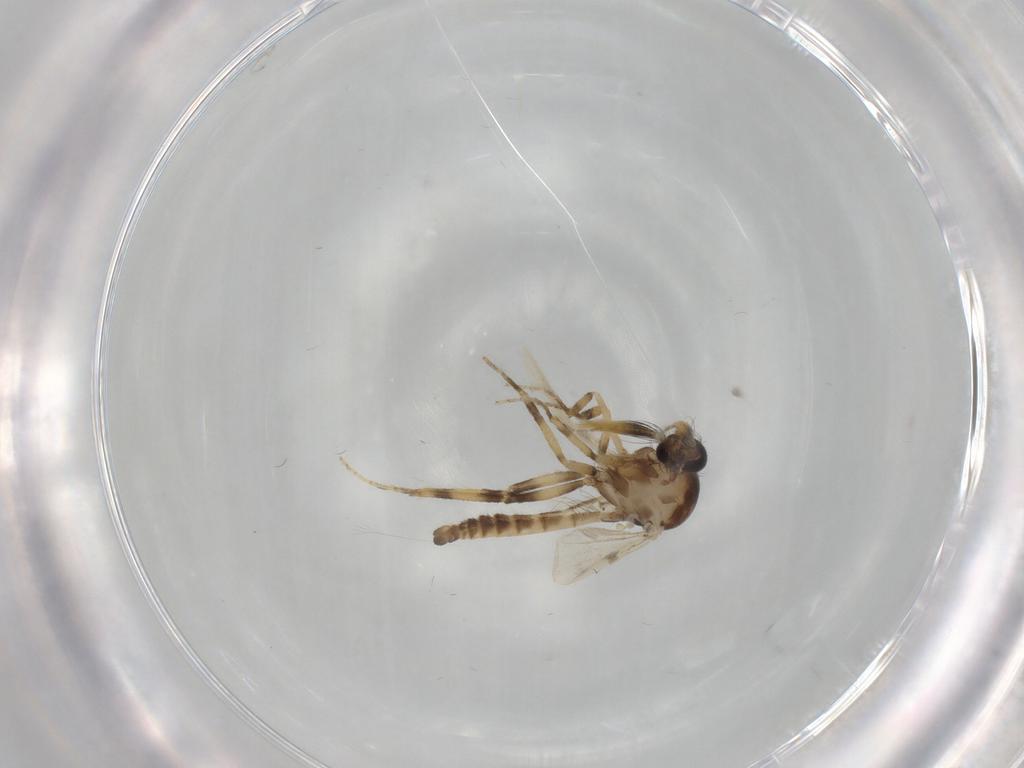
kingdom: Animalia
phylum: Arthropoda
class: Insecta
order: Diptera
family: Ceratopogonidae
